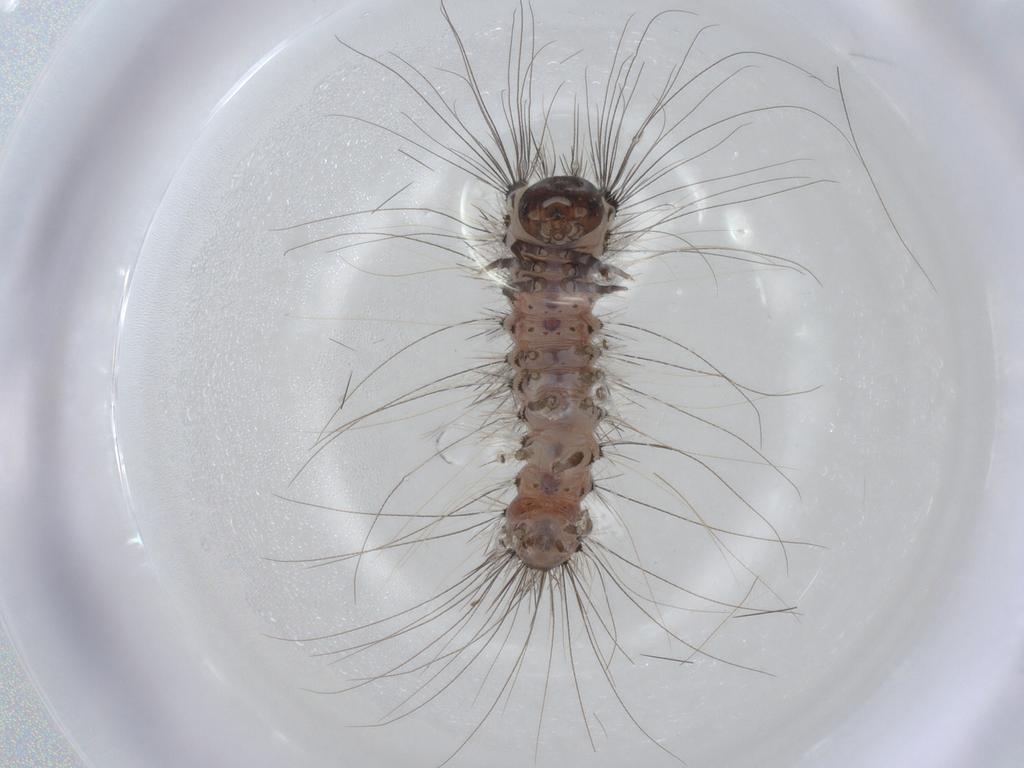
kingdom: Animalia
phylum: Arthropoda
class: Insecta
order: Lepidoptera
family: Erebidae
